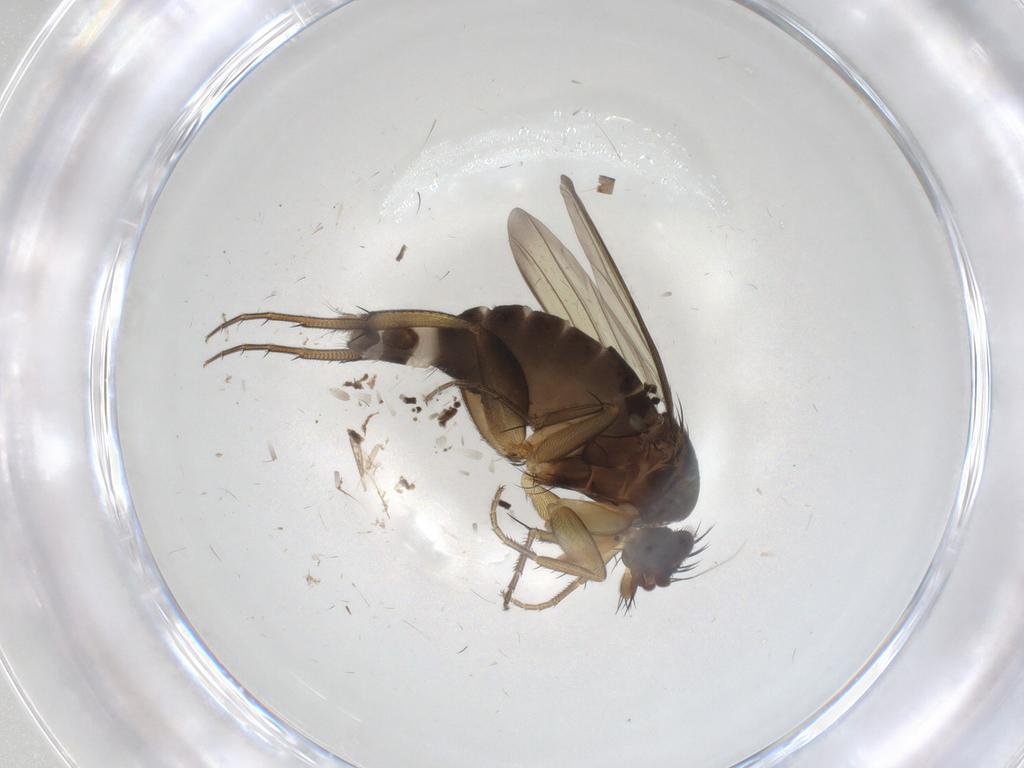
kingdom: Animalia
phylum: Arthropoda
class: Insecta
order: Diptera
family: Phoridae
